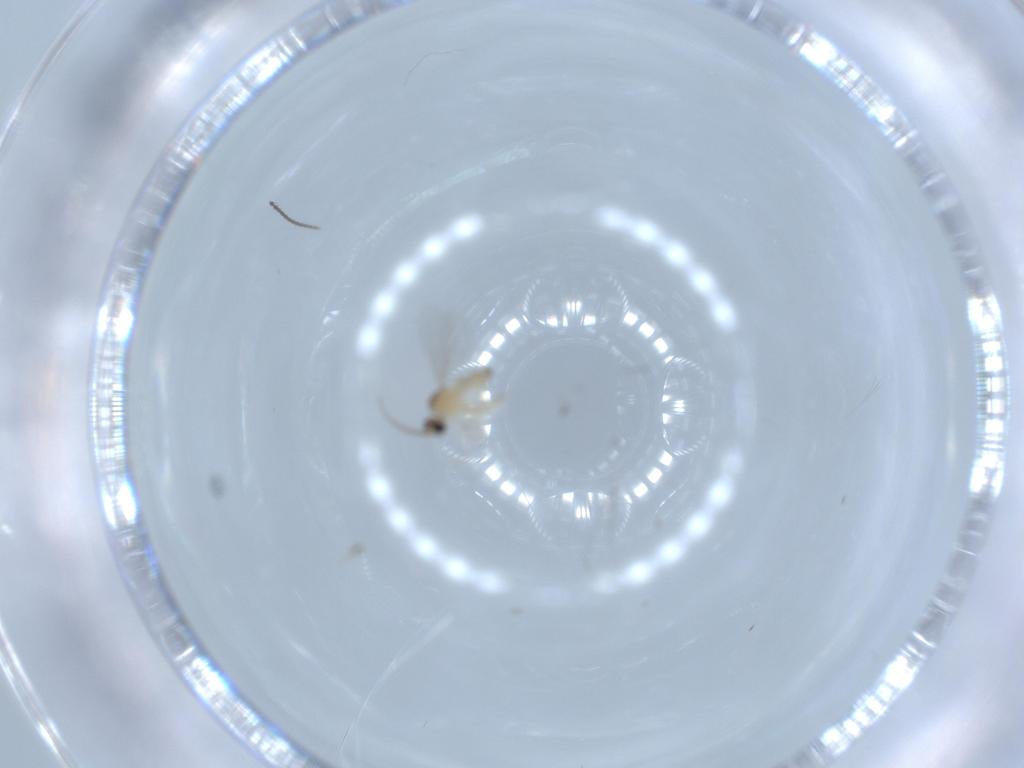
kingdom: Animalia
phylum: Arthropoda
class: Insecta
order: Diptera
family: Cecidomyiidae
